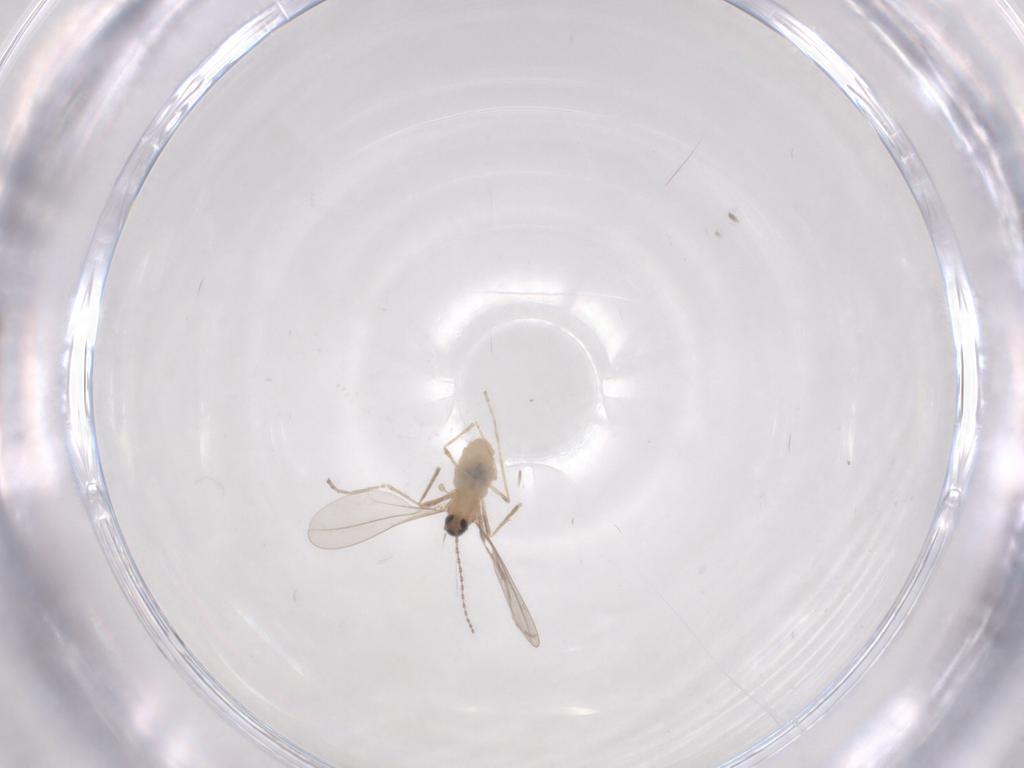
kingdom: Animalia
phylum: Arthropoda
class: Insecta
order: Diptera
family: Cecidomyiidae
